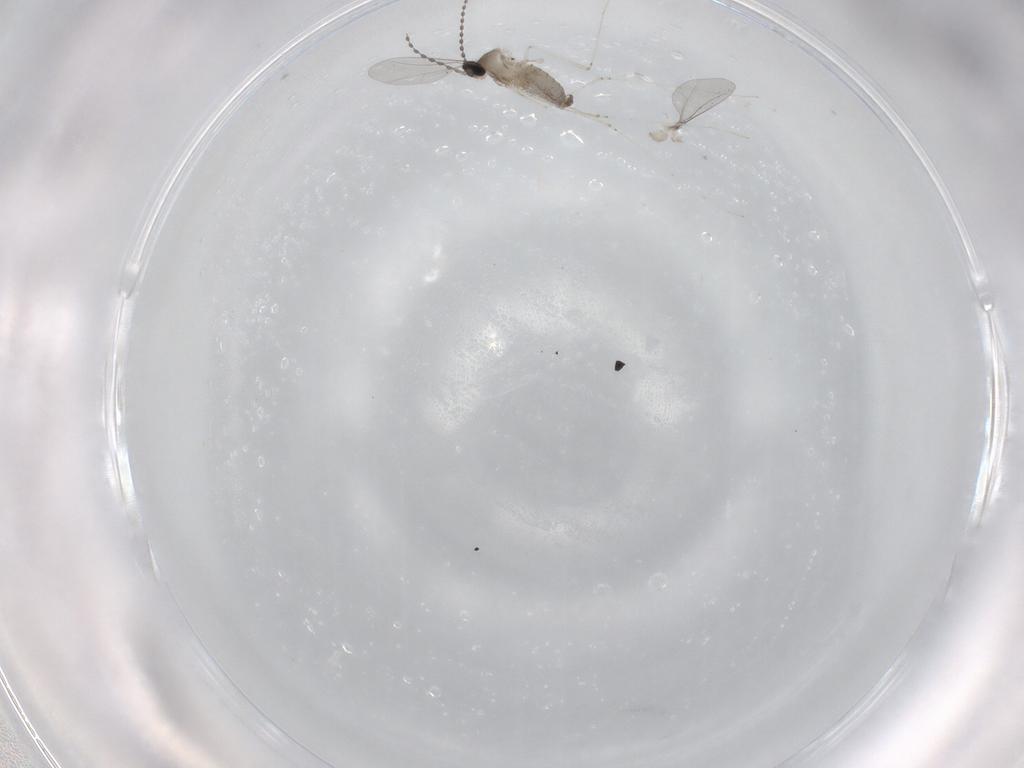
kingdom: Animalia
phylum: Arthropoda
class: Insecta
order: Diptera
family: Cecidomyiidae
